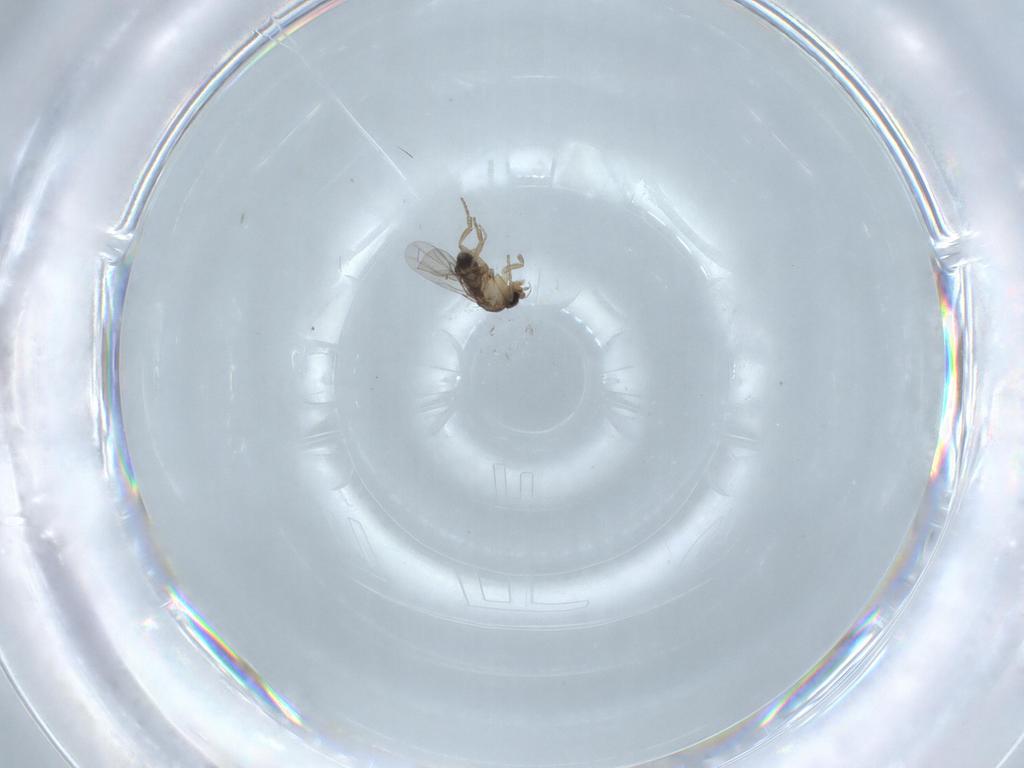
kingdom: Animalia
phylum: Arthropoda
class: Insecta
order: Diptera
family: Phoridae
